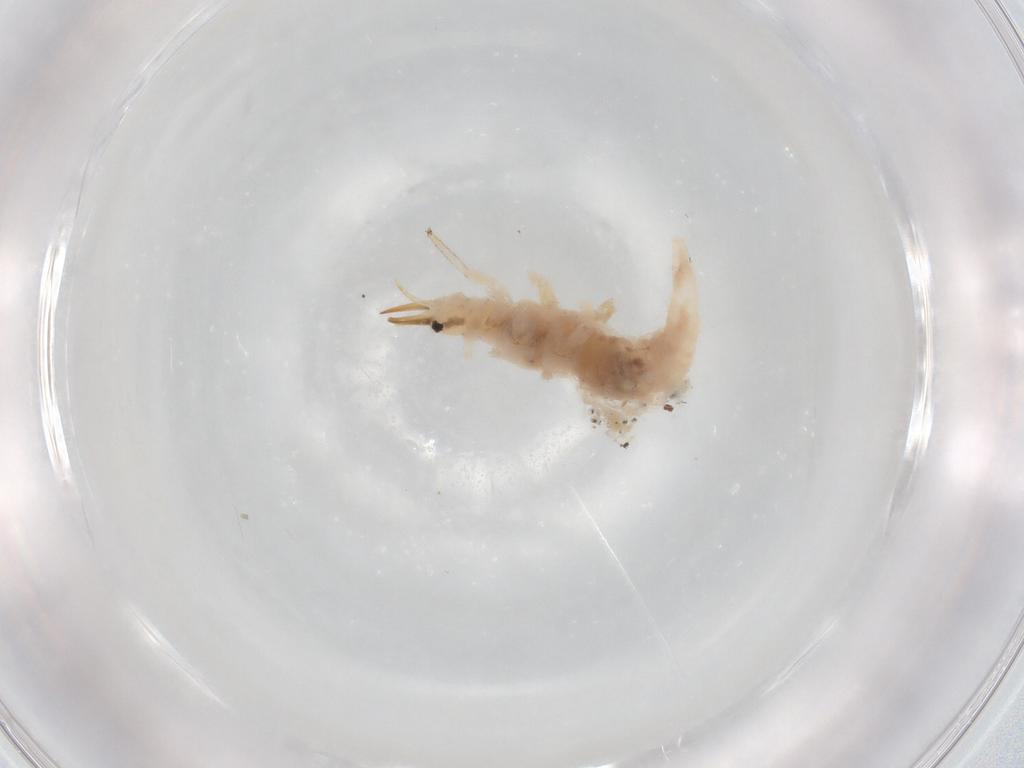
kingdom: Animalia
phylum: Arthropoda
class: Insecta
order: Neuroptera
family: Chrysopidae
